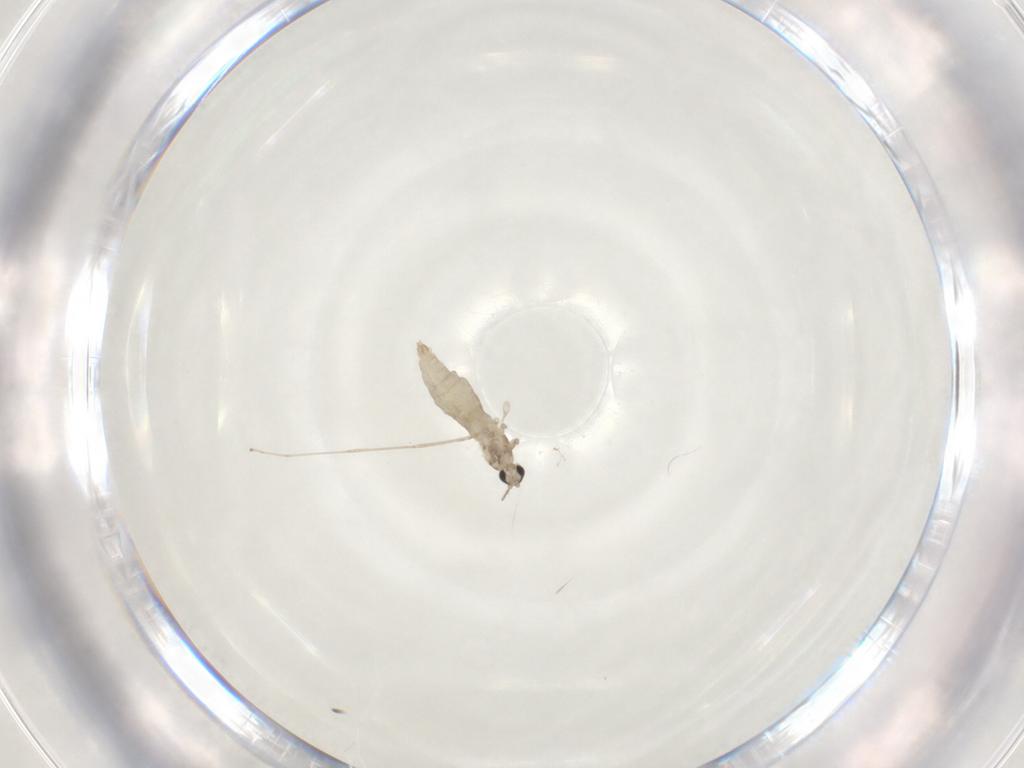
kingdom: Animalia
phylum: Arthropoda
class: Insecta
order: Diptera
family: Cecidomyiidae
